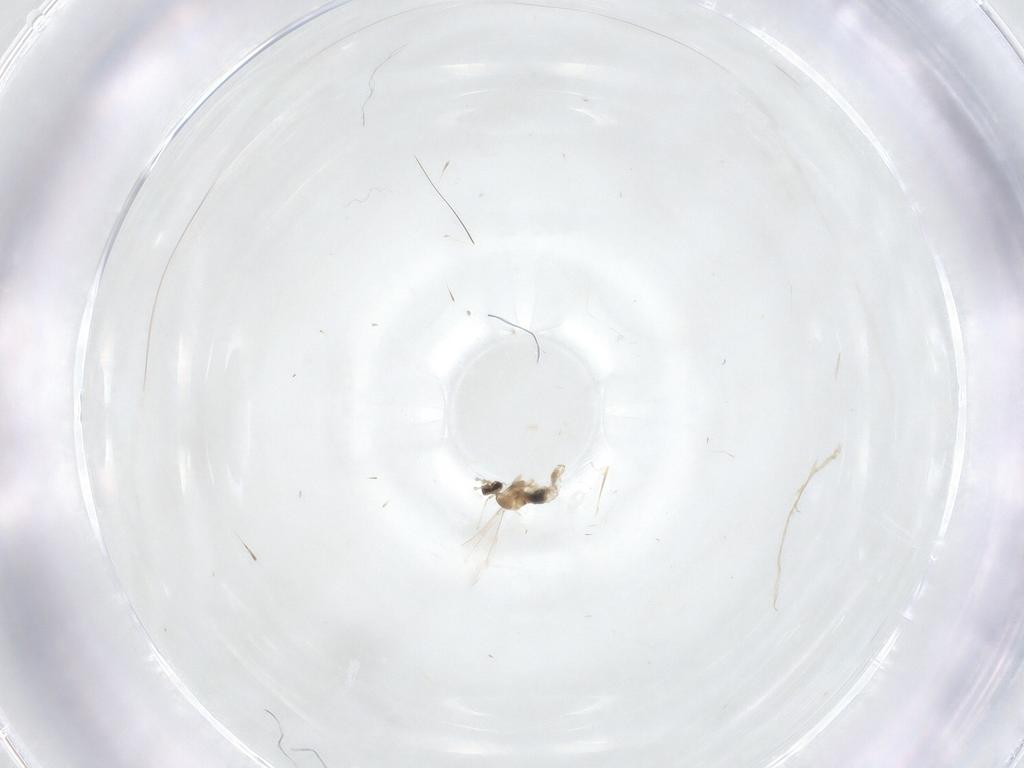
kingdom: Animalia
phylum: Arthropoda
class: Insecta
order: Diptera
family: Cecidomyiidae
